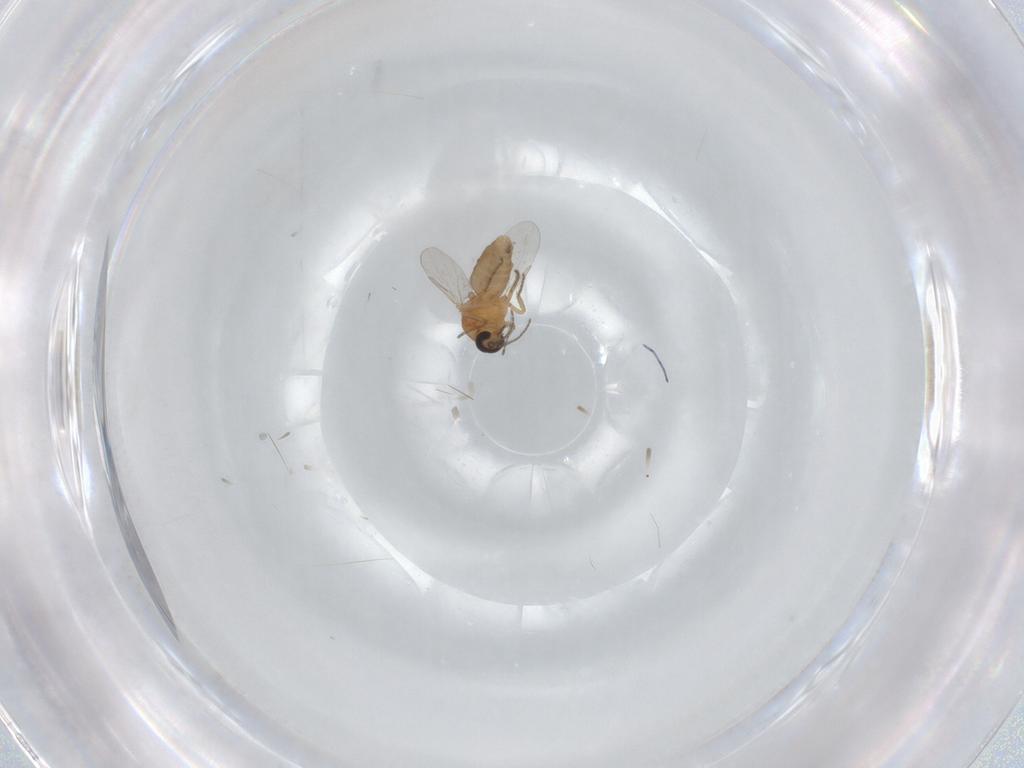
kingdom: Animalia
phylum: Arthropoda
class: Insecta
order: Diptera
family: Ceratopogonidae
